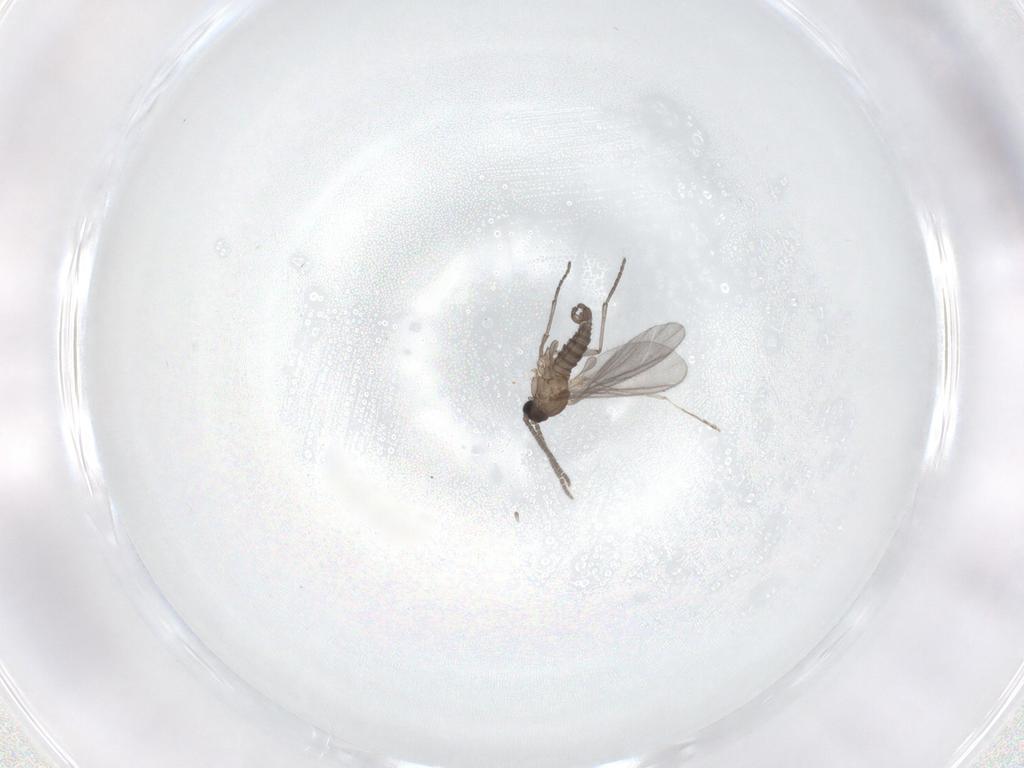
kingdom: Animalia
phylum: Arthropoda
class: Insecta
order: Diptera
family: Sciaridae
